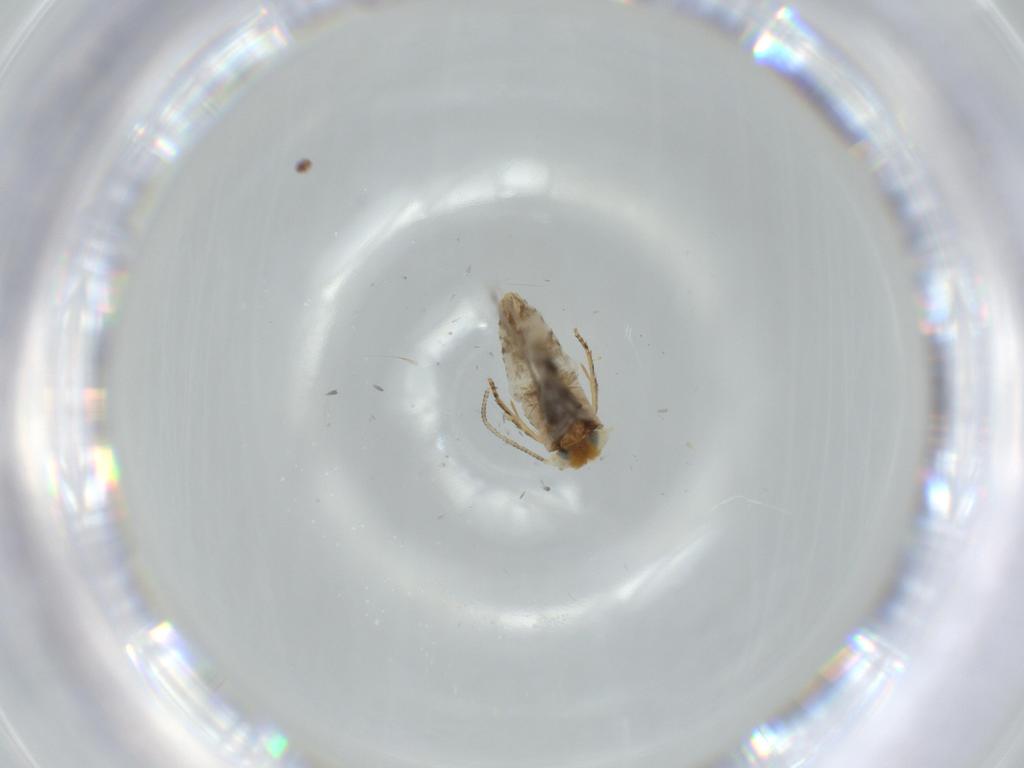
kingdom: Animalia
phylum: Arthropoda
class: Insecta
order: Lepidoptera
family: Nepticulidae
